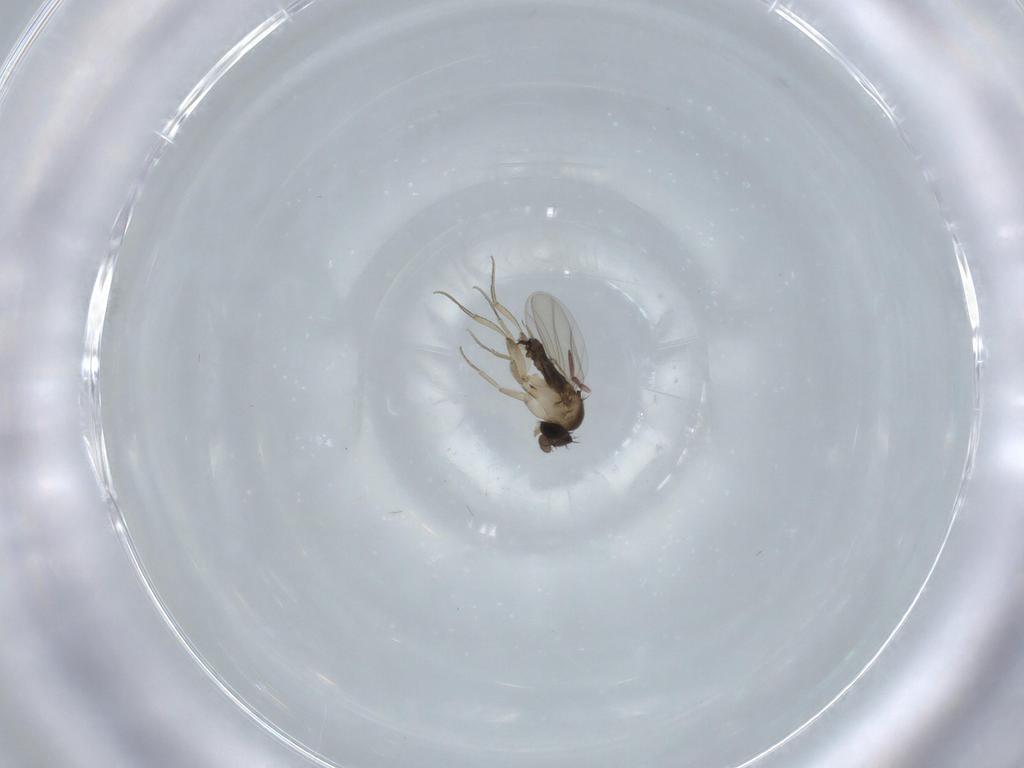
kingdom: Animalia
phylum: Arthropoda
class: Insecta
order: Diptera
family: Phoridae
